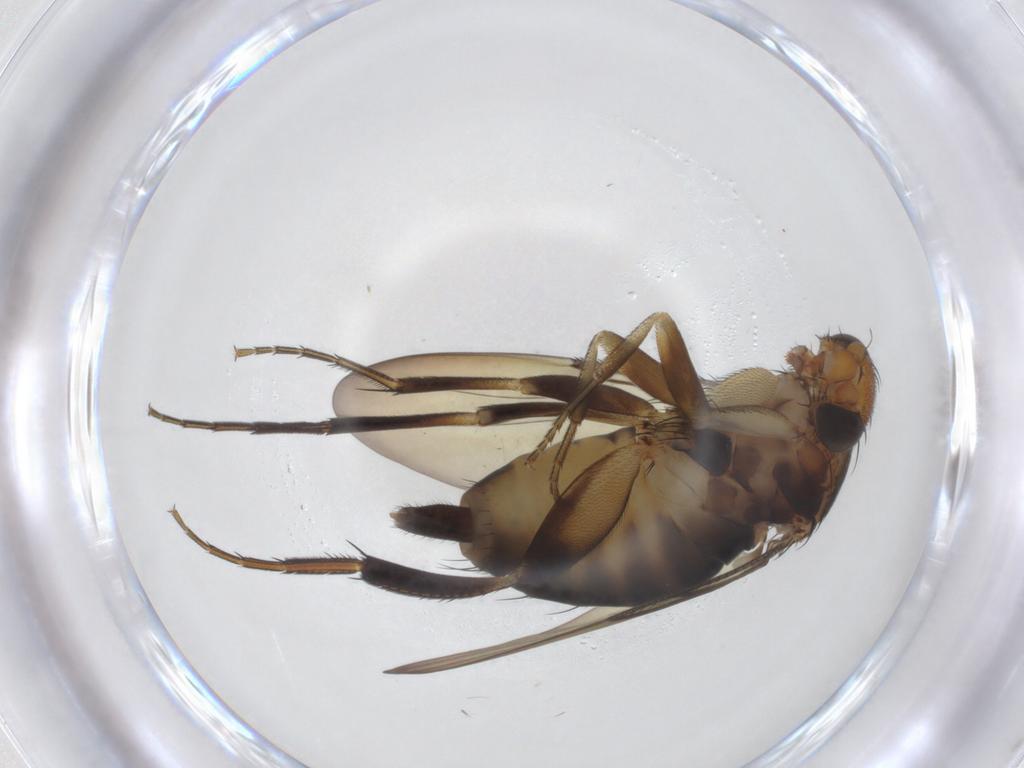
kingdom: Animalia
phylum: Arthropoda
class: Insecta
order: Diptera
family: Phoridae
